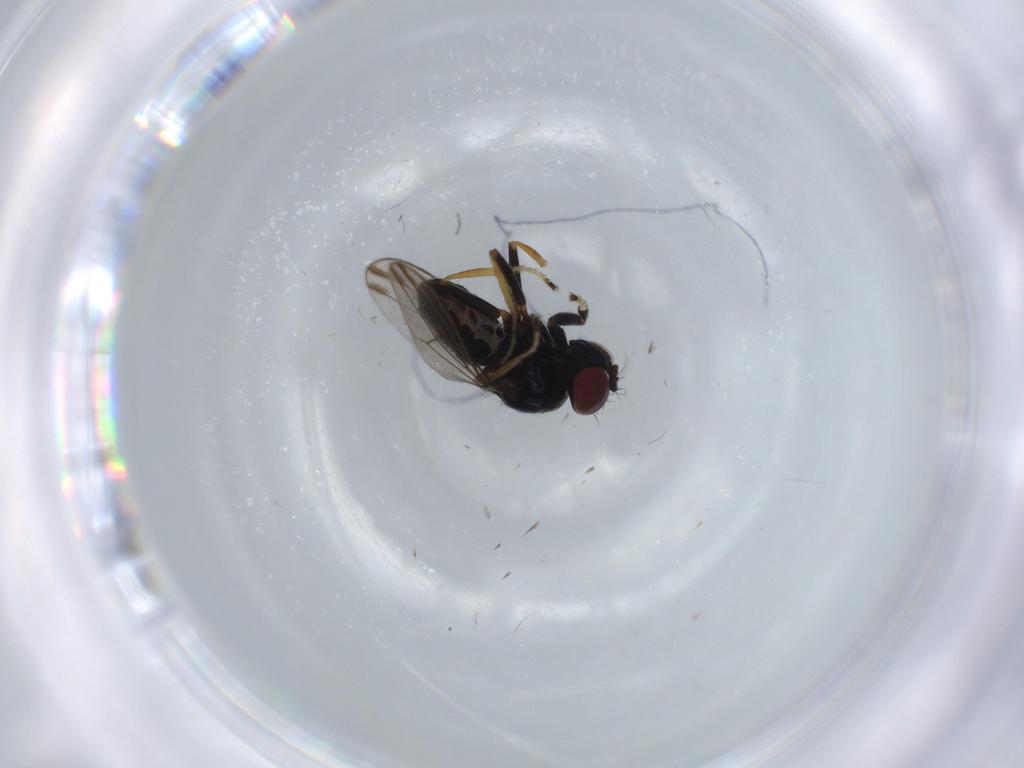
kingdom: Animalia
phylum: Arthropoda
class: Insecta
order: Diptera
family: Ephydridae
